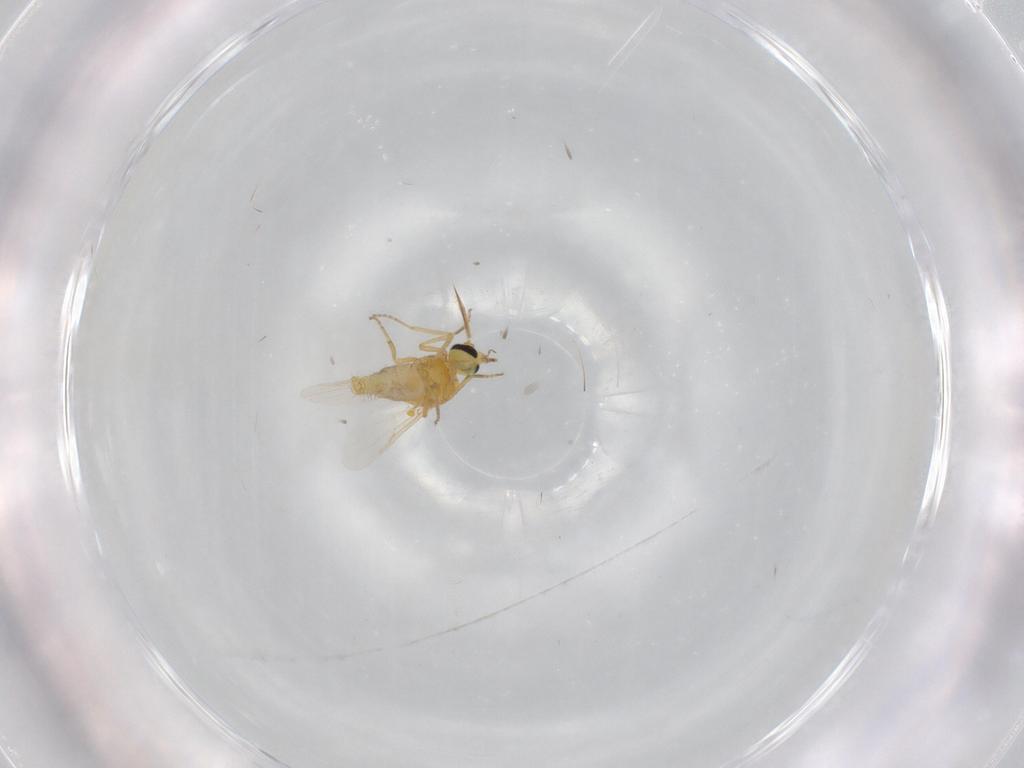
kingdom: Animalia
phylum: Arthropoda
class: Insecta
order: Diptera
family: Ceratopogonidae
